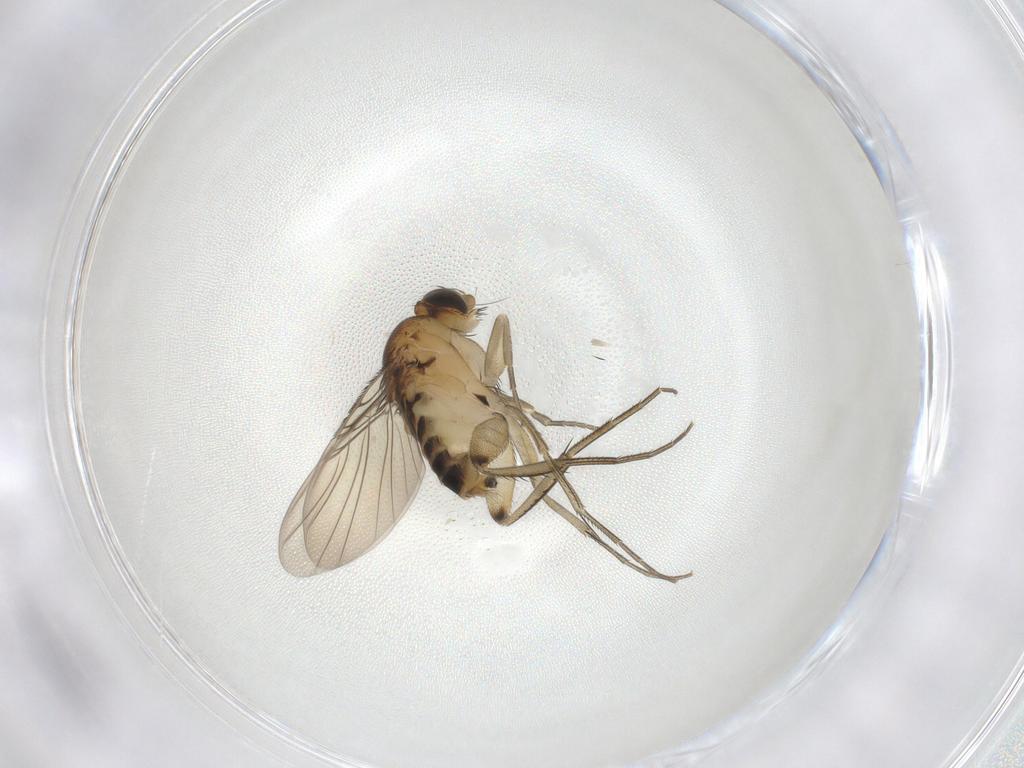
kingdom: Animalia
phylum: Arthropoda
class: Insecta
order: Diptera
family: Phoridae
